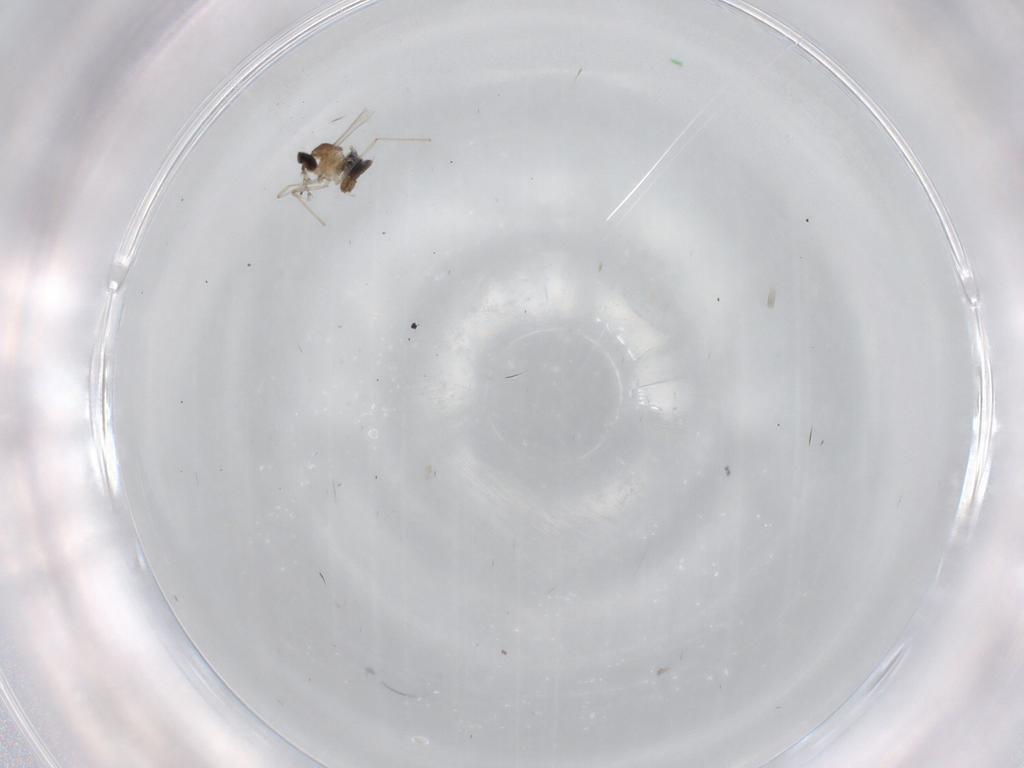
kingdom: Animalia
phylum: Arthropoda
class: Insecta
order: Diptera
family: Cecidomyiidae
